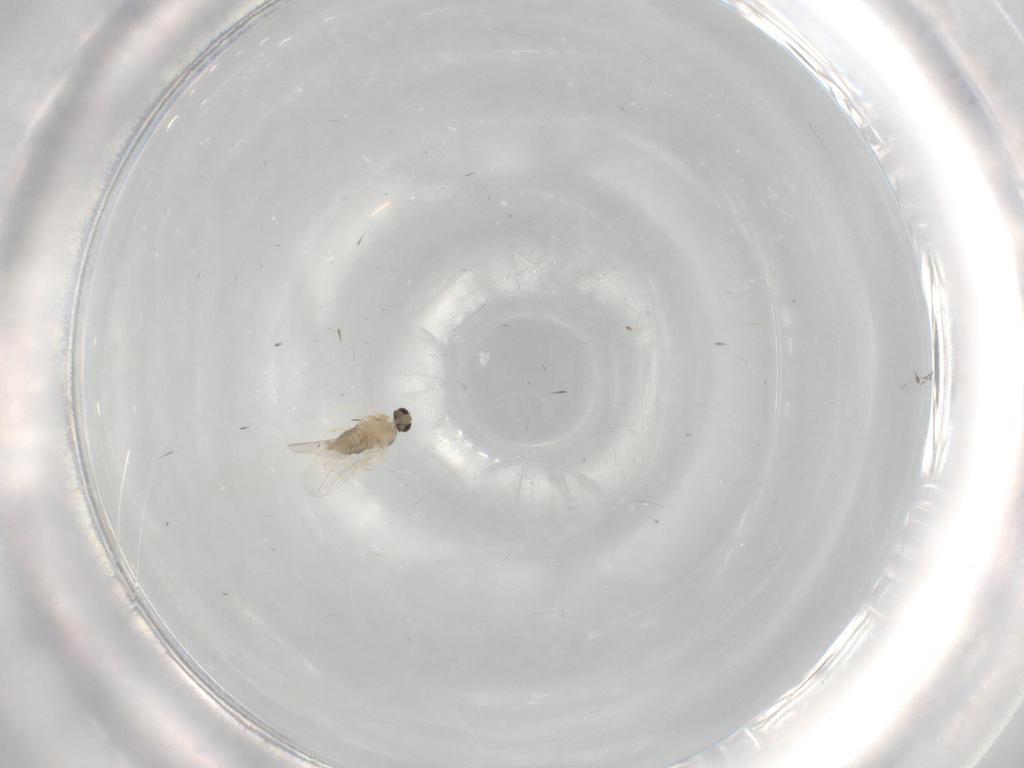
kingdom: Animalia
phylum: Arthropoda
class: Insecta
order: Diptera
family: Cecidomyiidae
